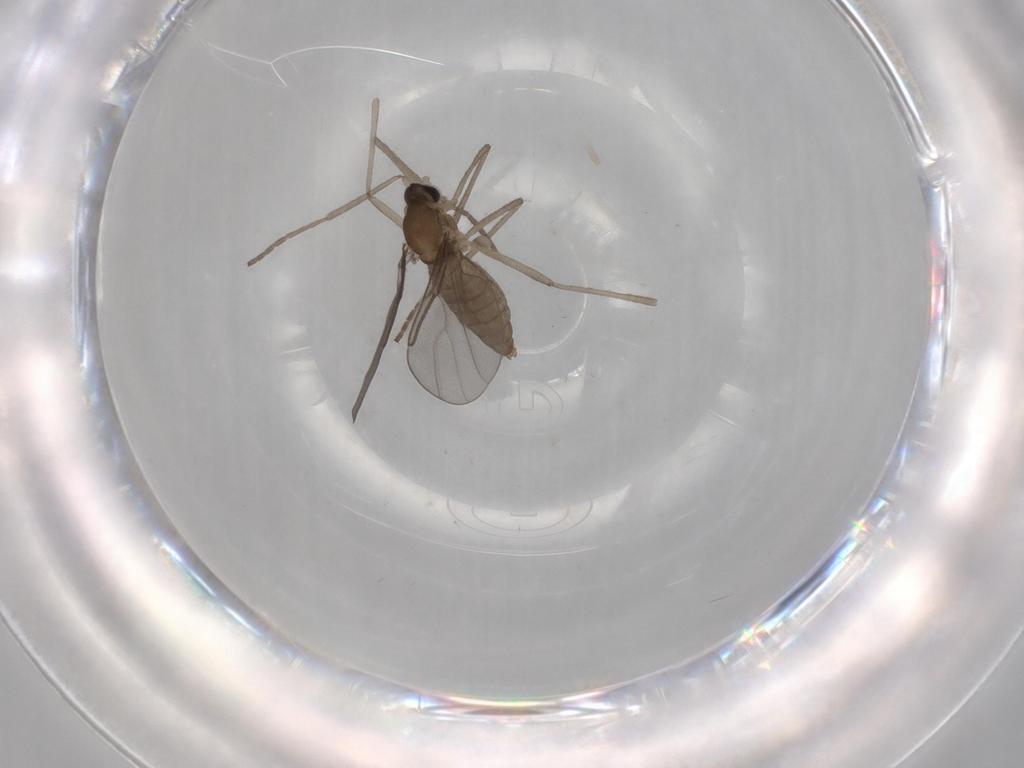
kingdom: Animalia
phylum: Arthropoda
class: Insecta
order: Diptera
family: Cecidomyiidae
